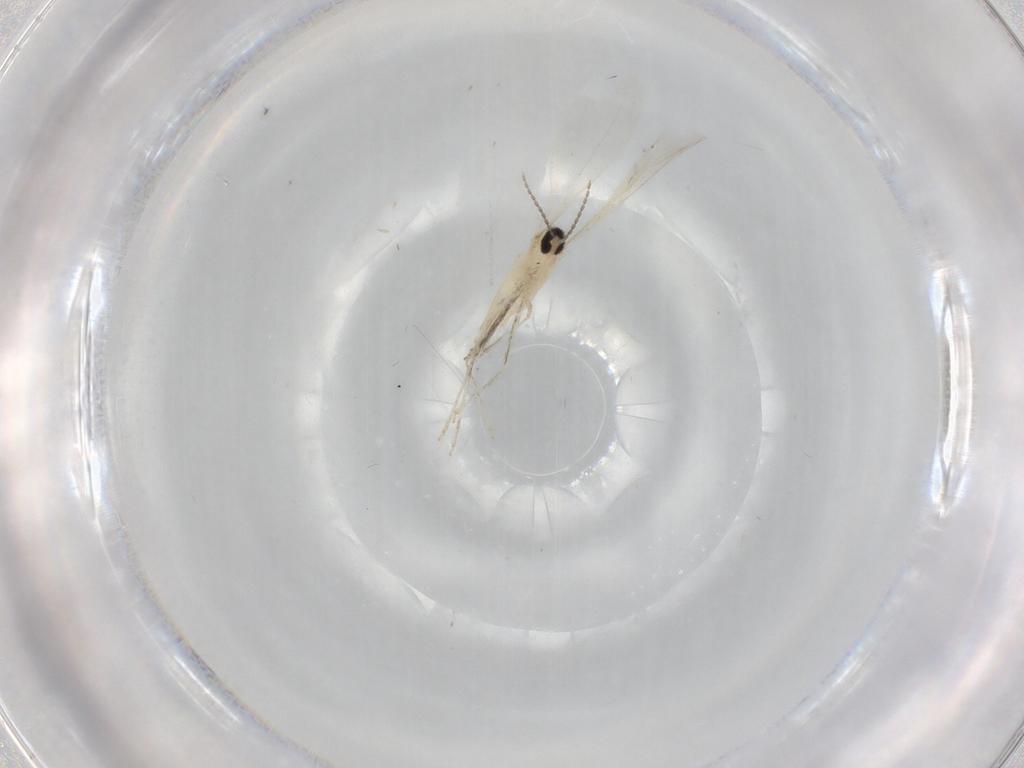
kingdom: Animalia
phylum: Arthropoda
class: Insecta
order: Diptera
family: Cecidomyiidae
